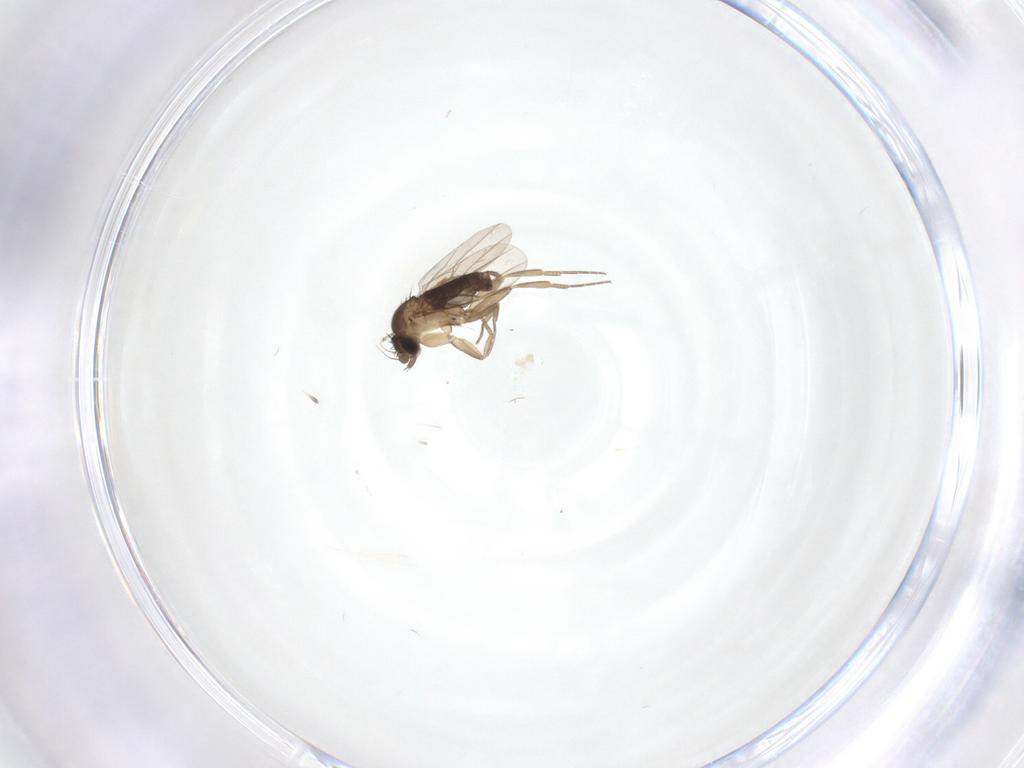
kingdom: Animalia
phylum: Arthropoda
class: Insecta
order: Diptera
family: Phoridae
